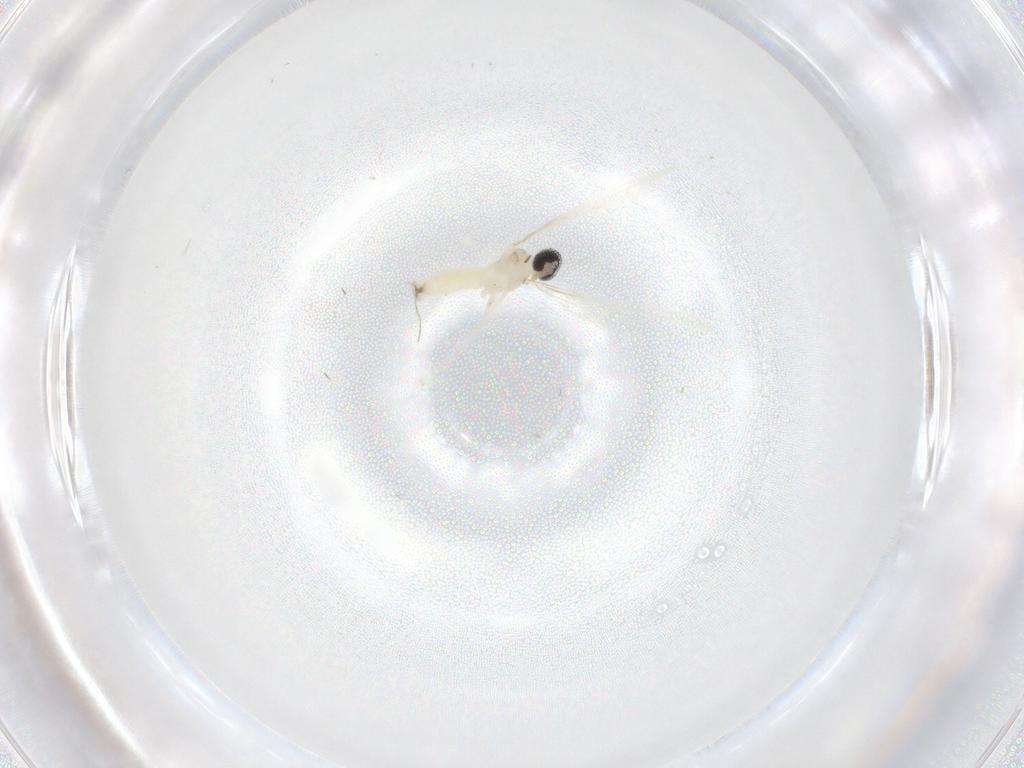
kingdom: Animalia
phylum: Arthropoda
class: Insecta
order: Diptera
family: Cecidomyiidae
